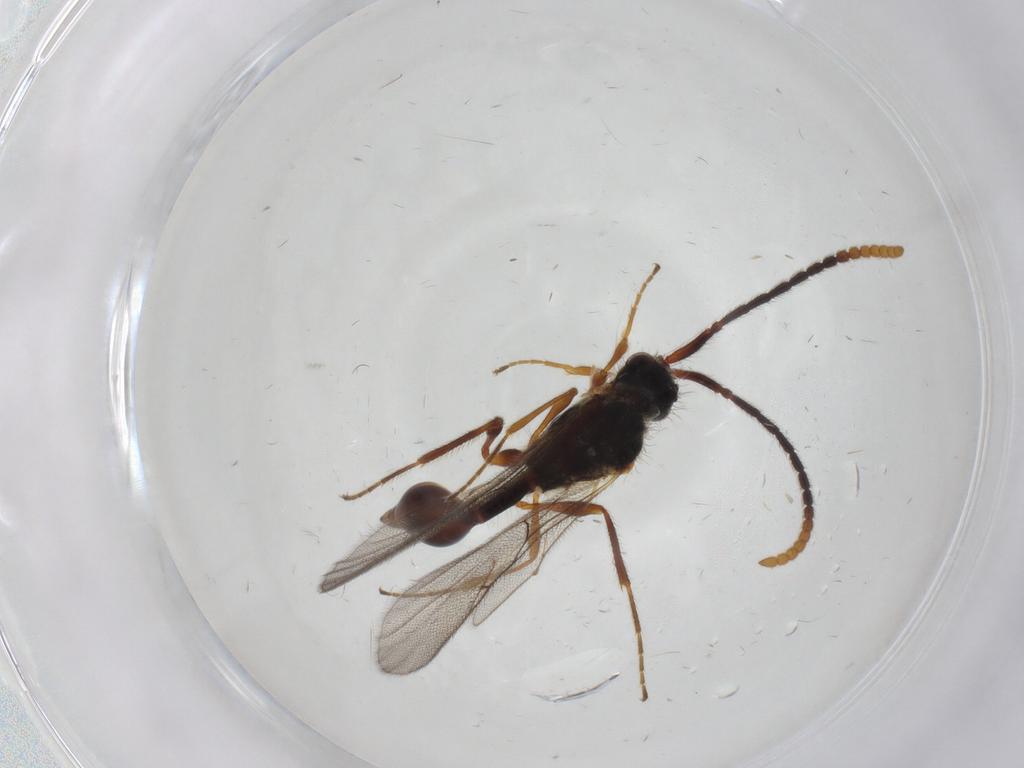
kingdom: Animalia
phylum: Arthropoda
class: Insecta
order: Hymenoptera
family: Diapriidae
